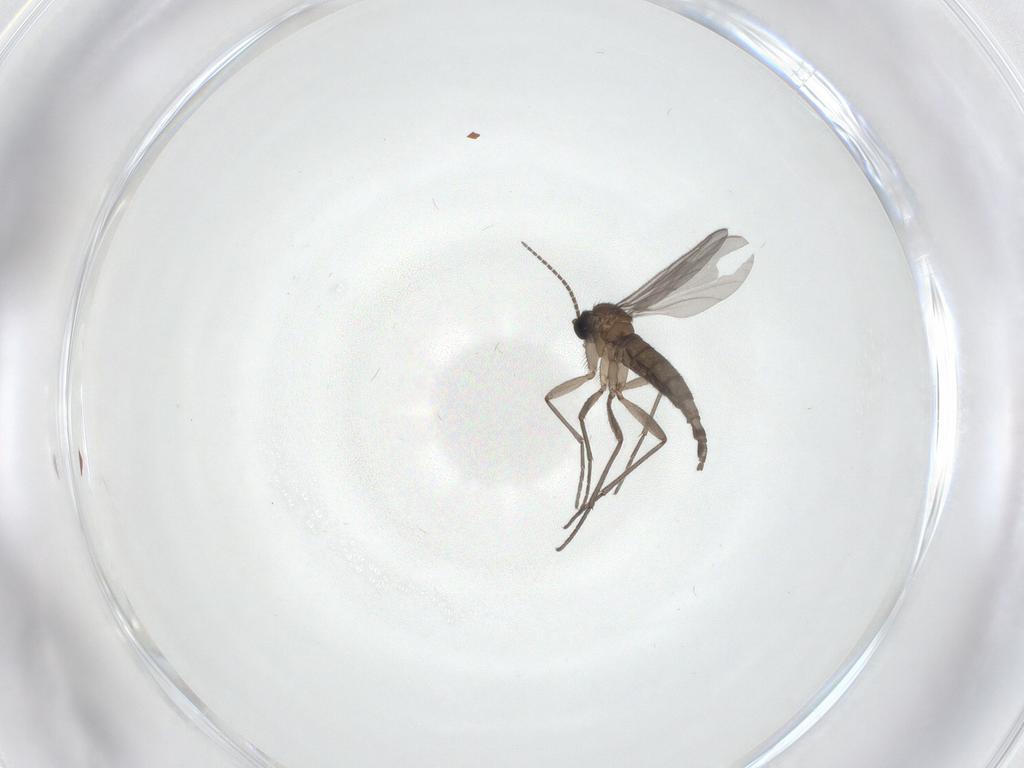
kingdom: Animalia
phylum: Arthropoda
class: Insecta
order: Diptera
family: Sciaridae
